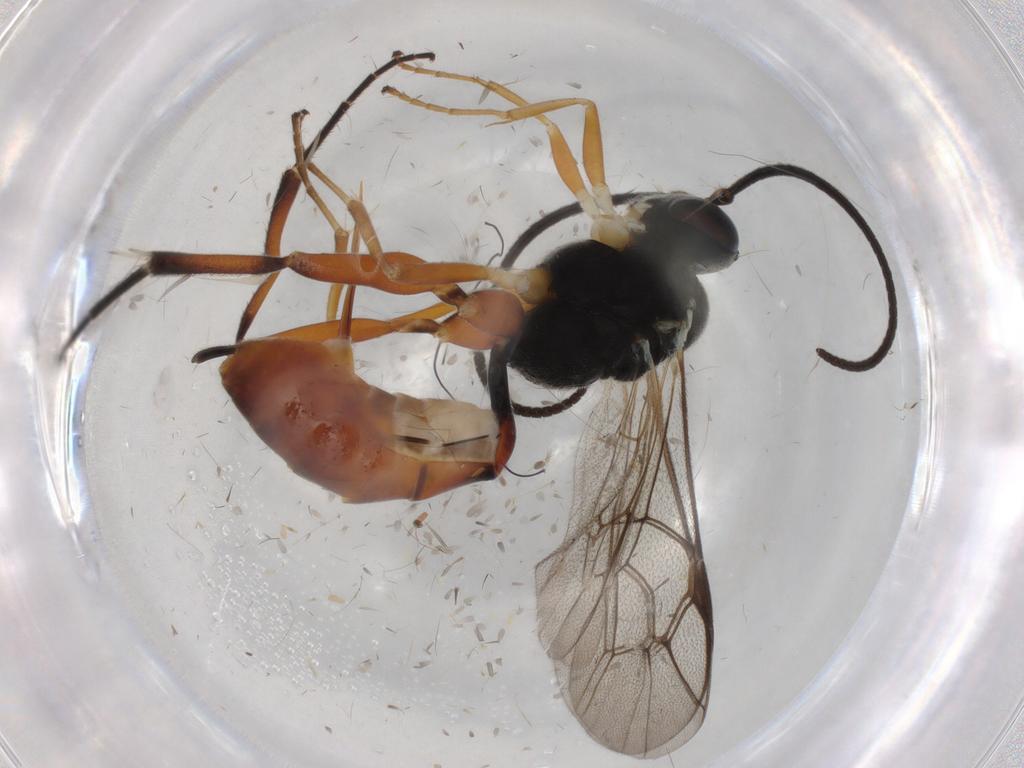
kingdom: Animalia
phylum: Arthropoda
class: Insecta
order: Hymenoptera
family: Ichneumonidae
